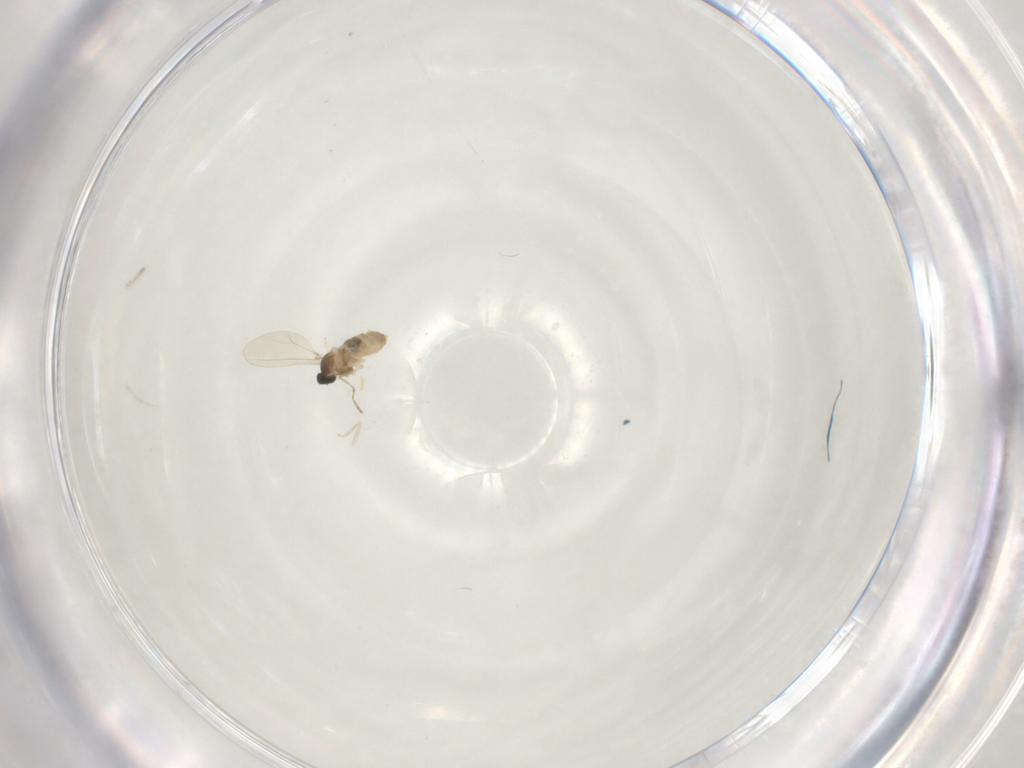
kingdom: Animalia
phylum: Arthropoda
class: Insecta
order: Diptera
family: Cecidomyiidae
